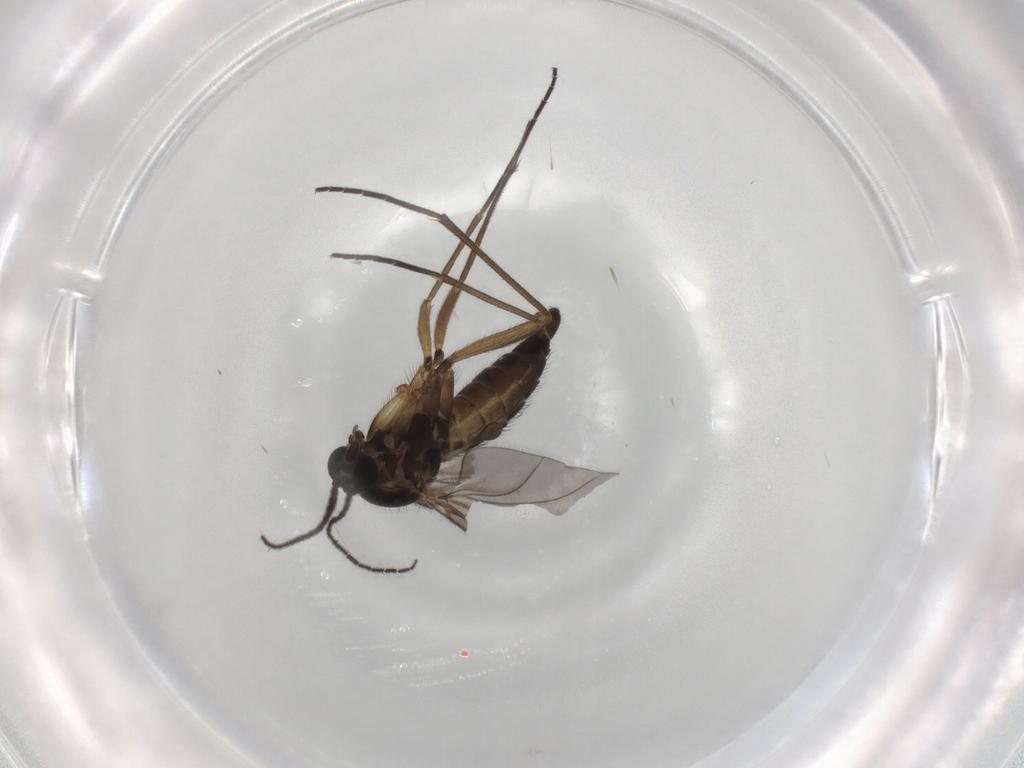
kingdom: Animalia
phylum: Arthropoda
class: Insecta
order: Diptera
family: Sciaridae
